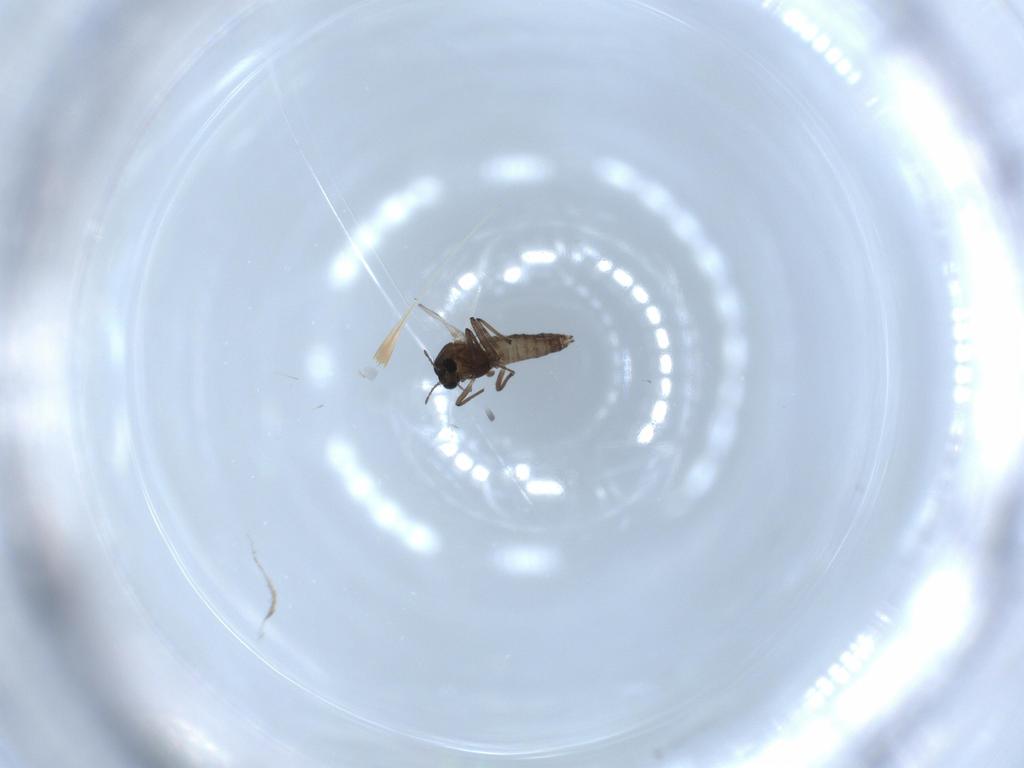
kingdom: Animalia
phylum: Arthropoda
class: Insecta
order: Diptera
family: Chironomidae
